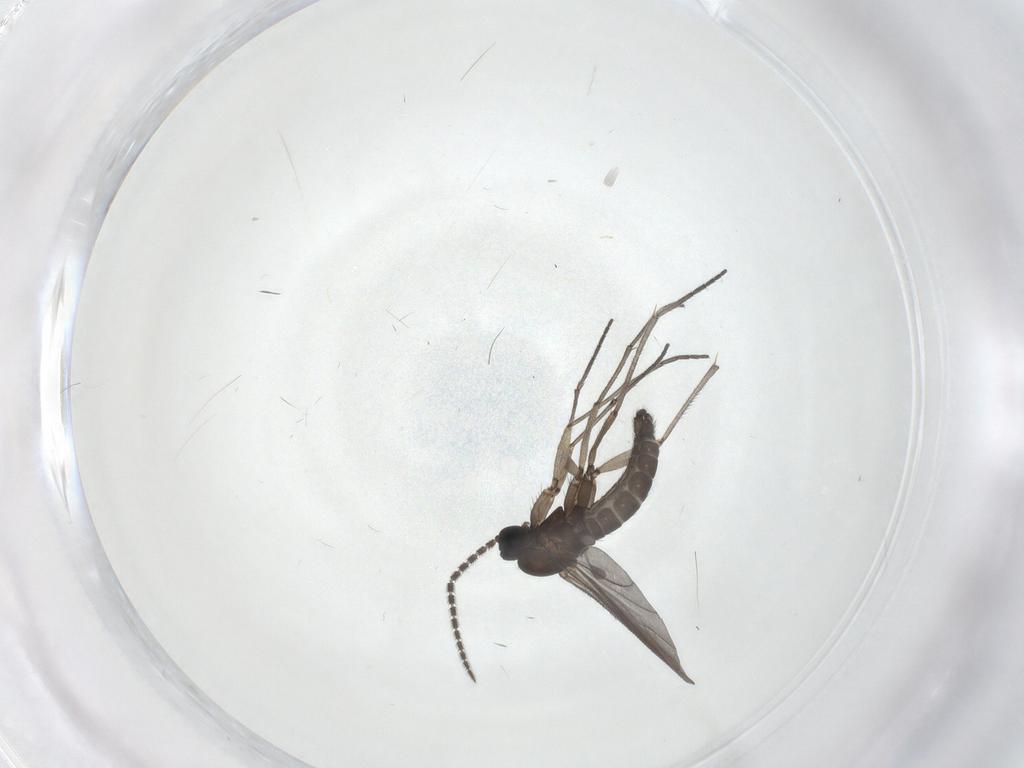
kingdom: Animalia
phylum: Arthropoda
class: Insecta
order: Diptera
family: Sciaridae
